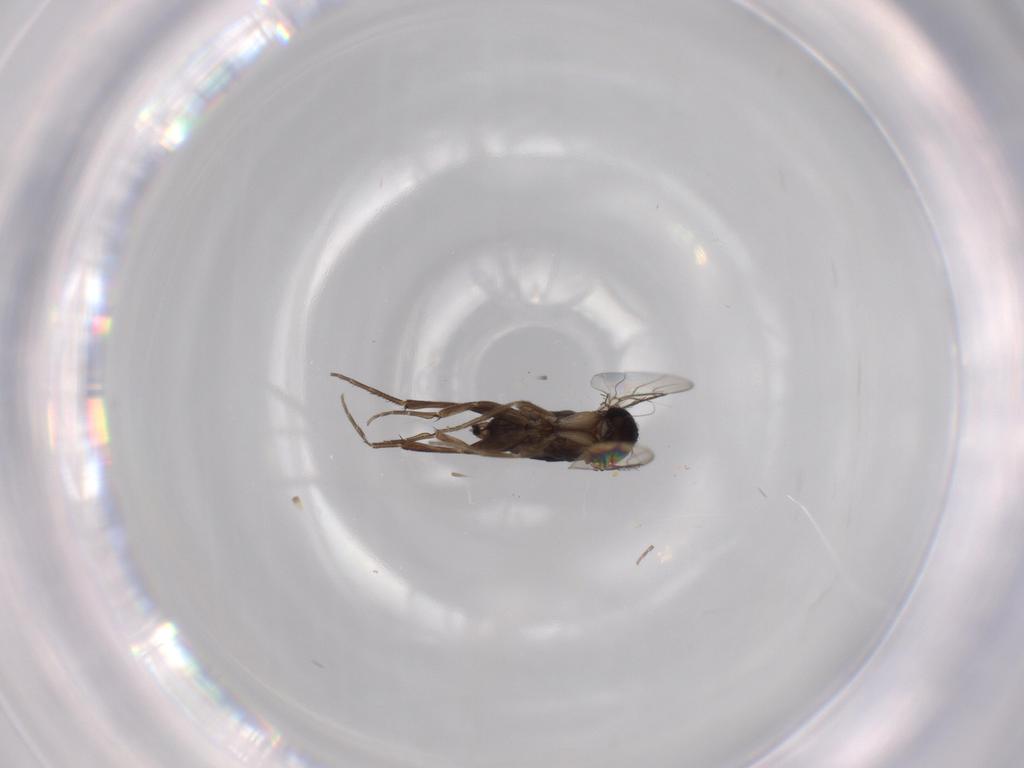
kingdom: Animalia
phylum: Arthropoda
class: Insecta
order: Diptera
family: Phoridae
